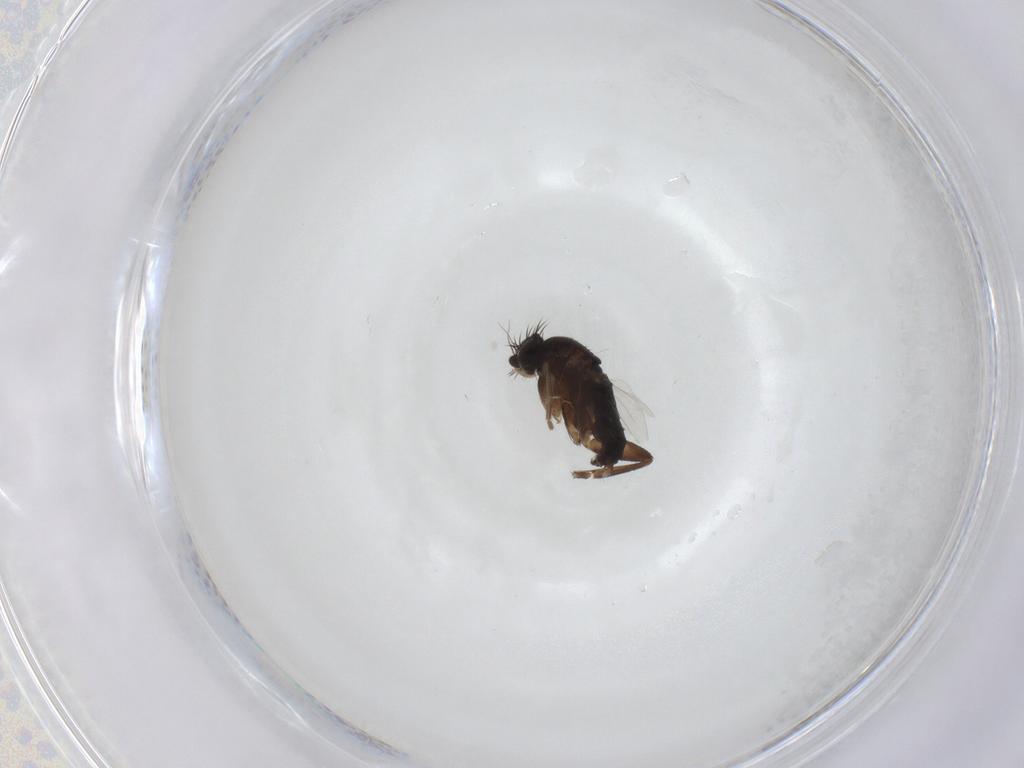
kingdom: Animalia
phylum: Arthropoda
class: Insecta
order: Diptera
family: Phoridae
